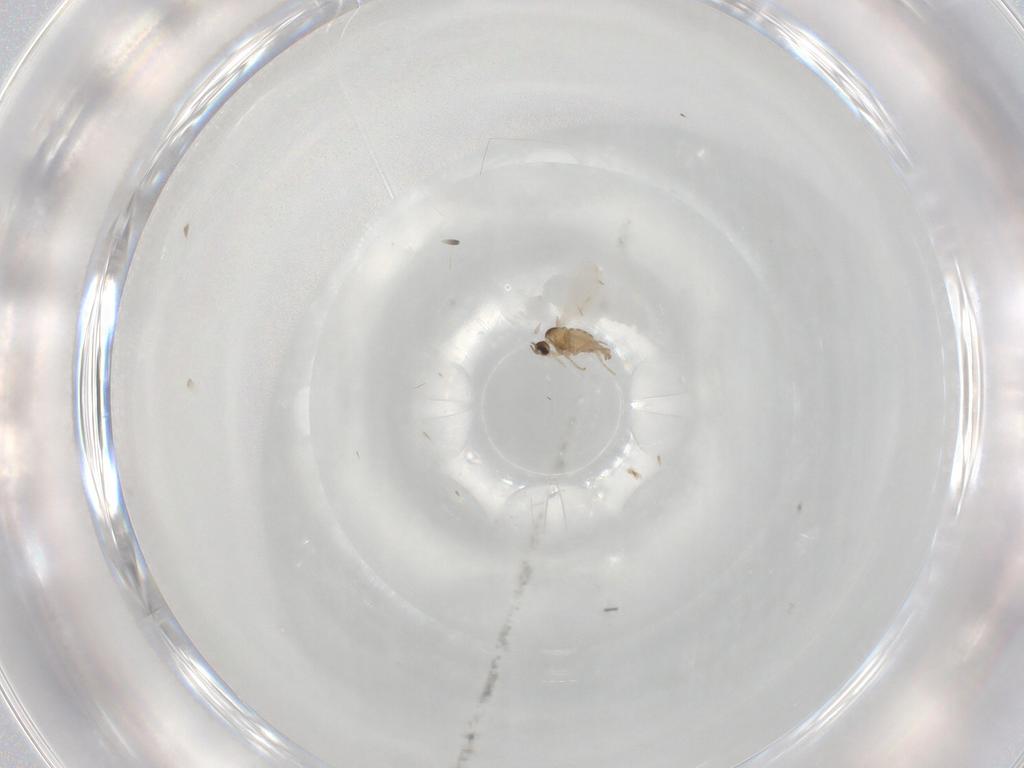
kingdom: Animalia
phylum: Arthropoda
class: Insecta
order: Diptera
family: Cecidomyiidae
